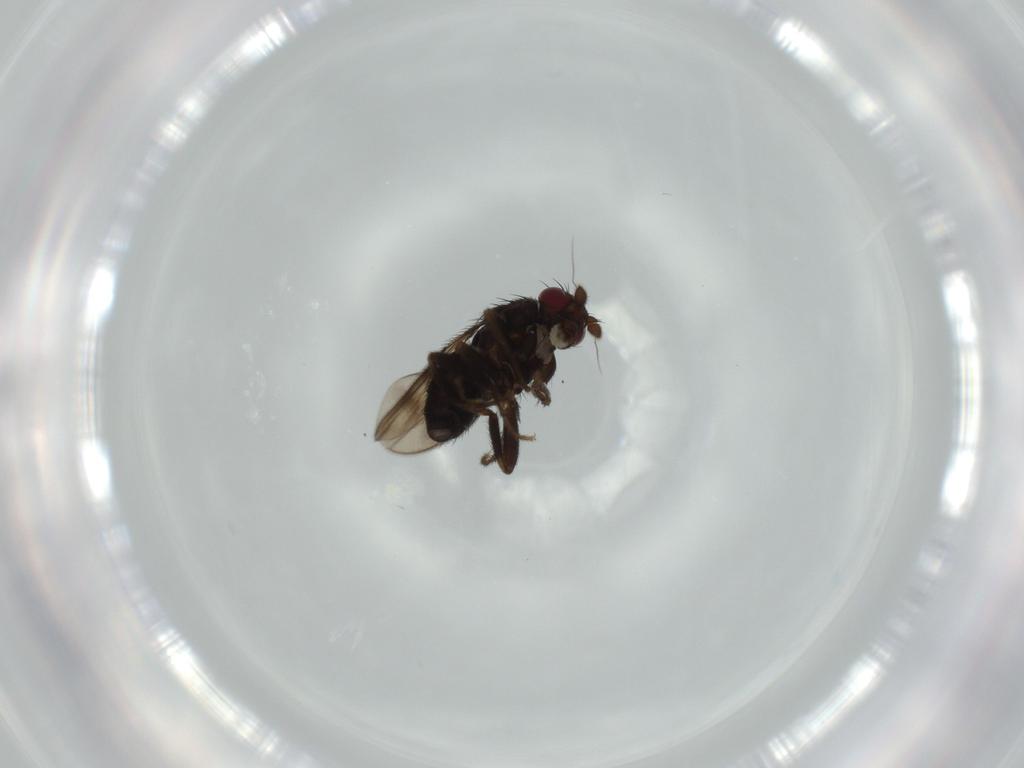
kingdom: Animalia
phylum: Arthropoda
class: Insecta
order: Diptera
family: Sphaeroceridae
